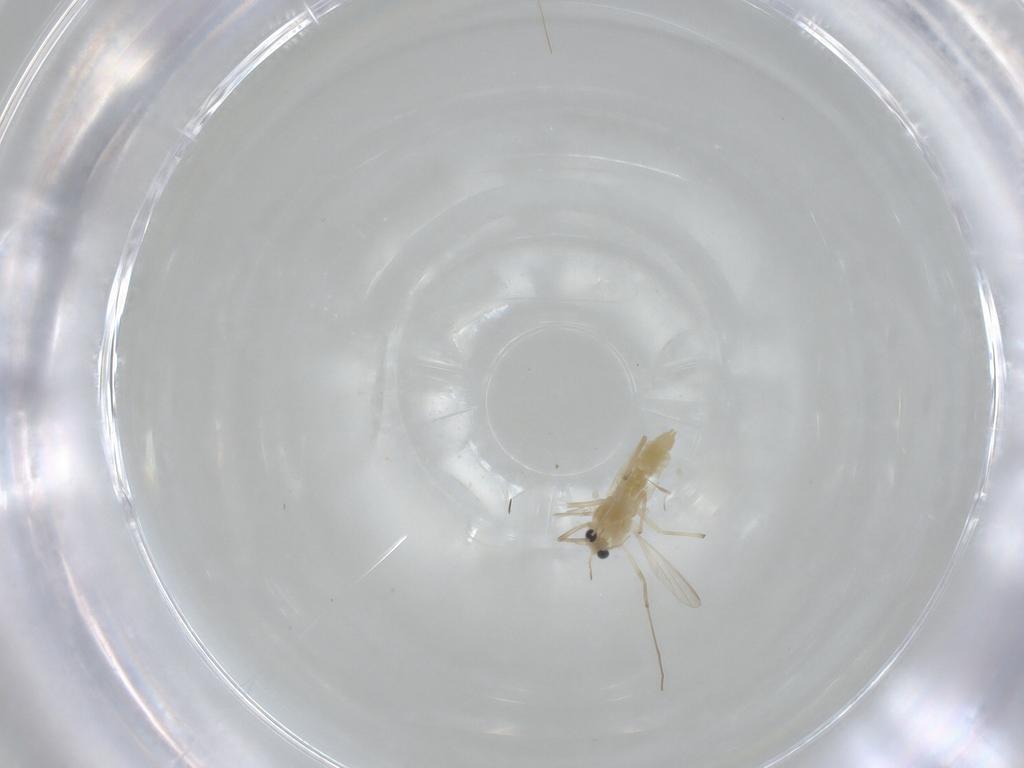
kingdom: Animalia
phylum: Arthropoda
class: Insecta
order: Diptera
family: Chironomidae
